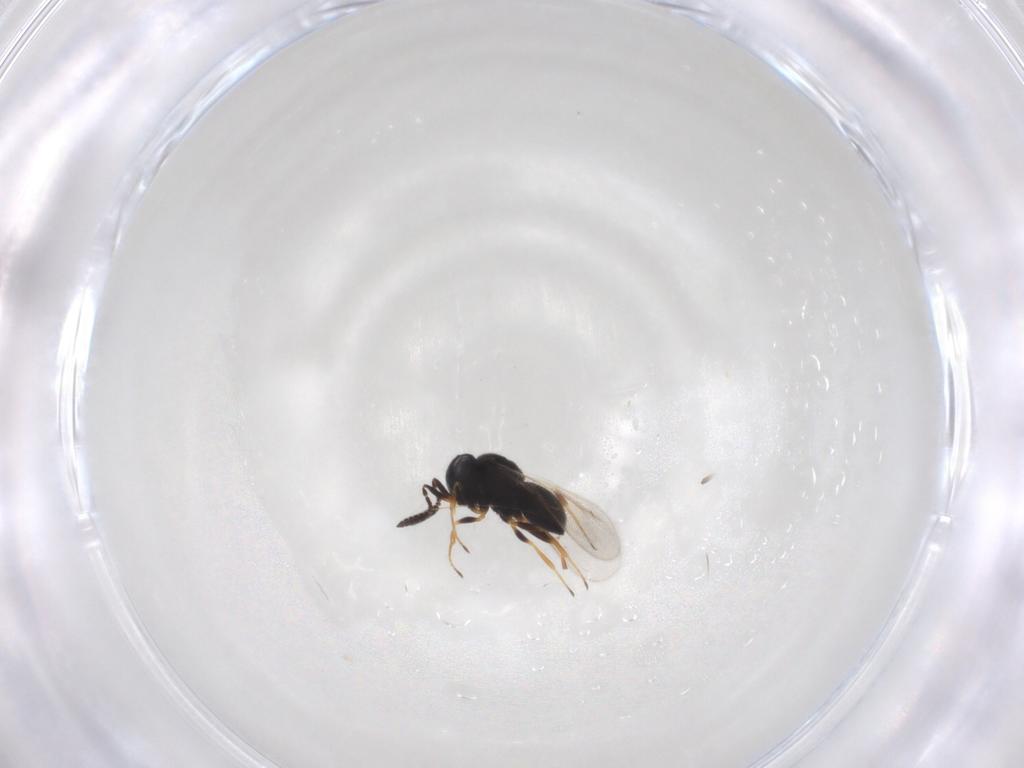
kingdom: Animalia
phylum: Arthropoda
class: Insecta
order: Hymenoptera
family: Scelionidae
